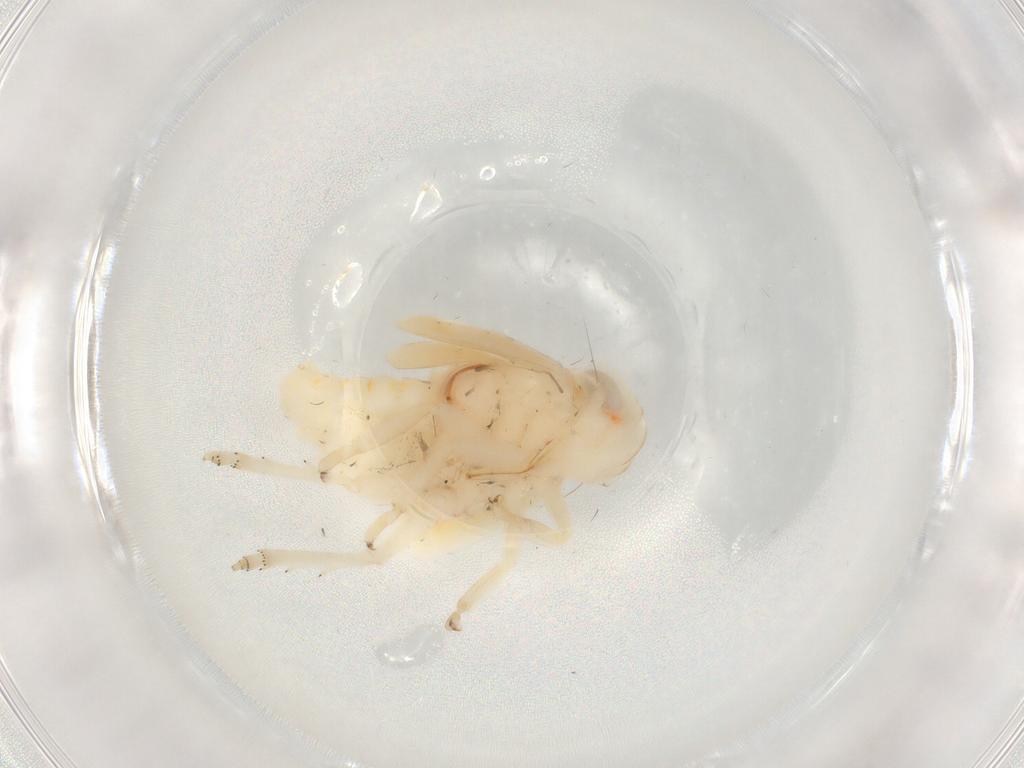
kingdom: Animalia
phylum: Arthropoda
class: Insecta
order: Hemiptera
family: Nogodinidae
